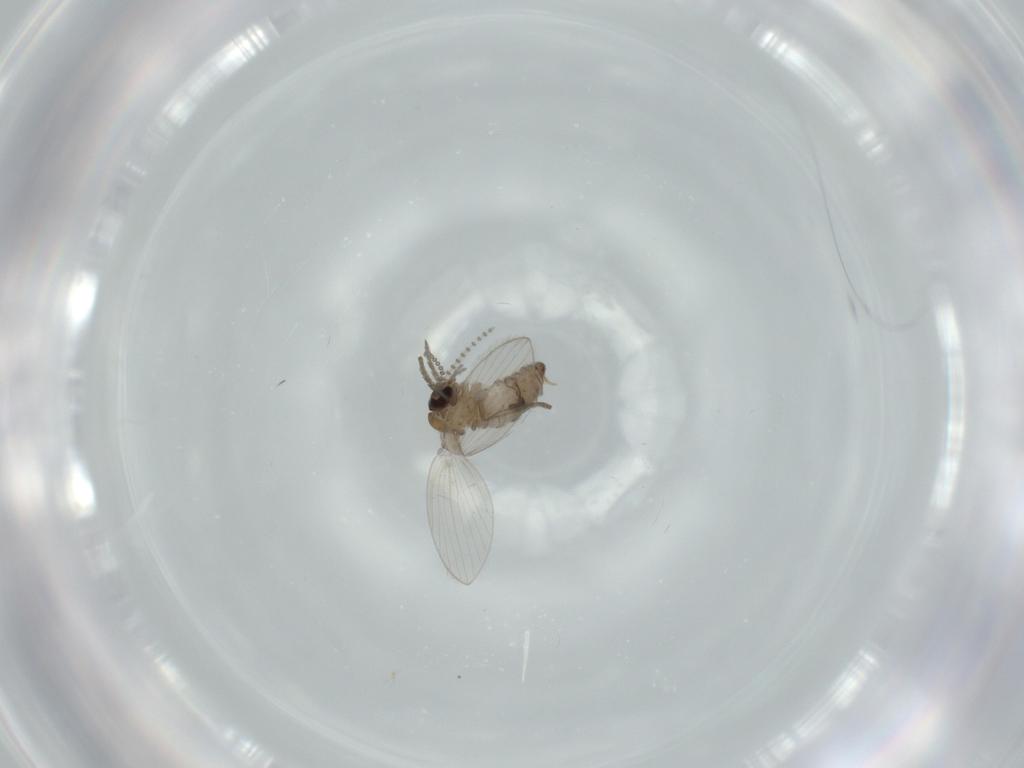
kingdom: Animalia
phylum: Arthropoda
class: Insecta
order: Diptera
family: Psychodidae
